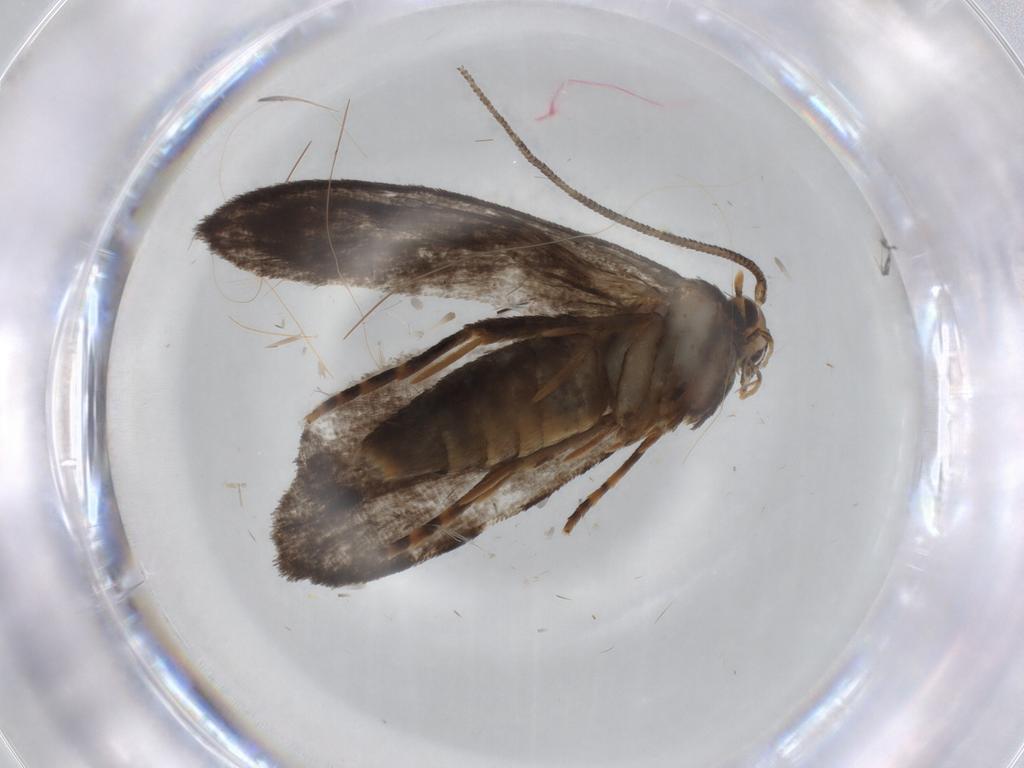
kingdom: Animalia
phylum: Arthropoda
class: Insecta
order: Lepidoptera
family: Tineidae
